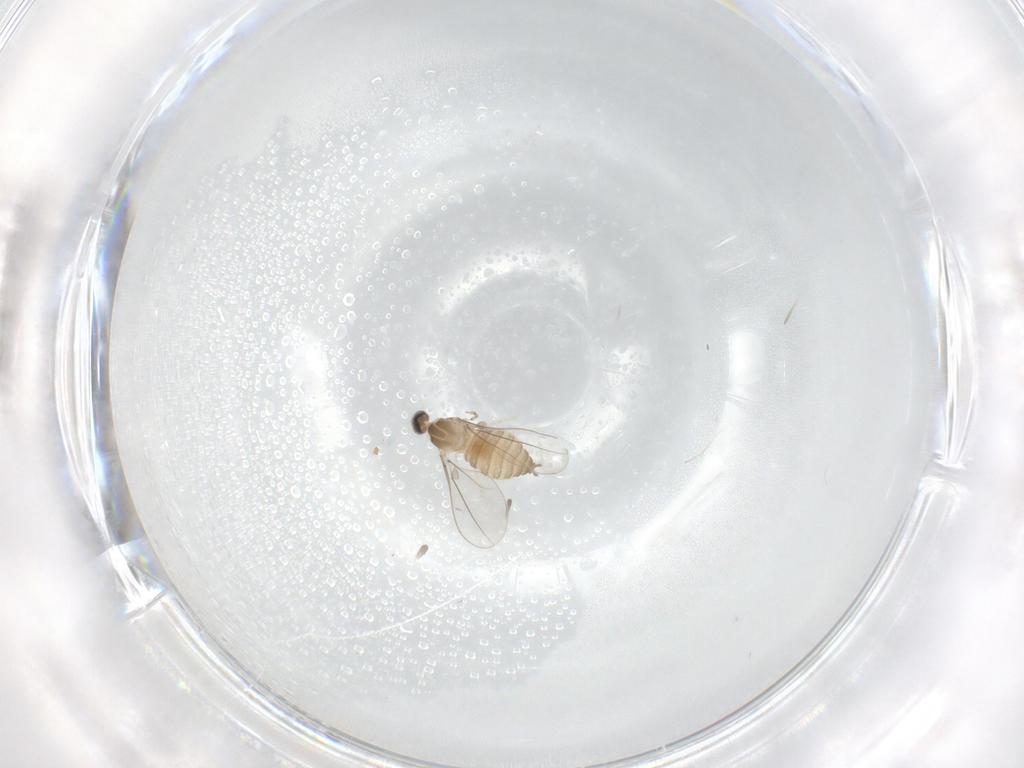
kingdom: Animalia
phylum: Arthropoda
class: Insecta
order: Diptera
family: Cecidomyiidae
